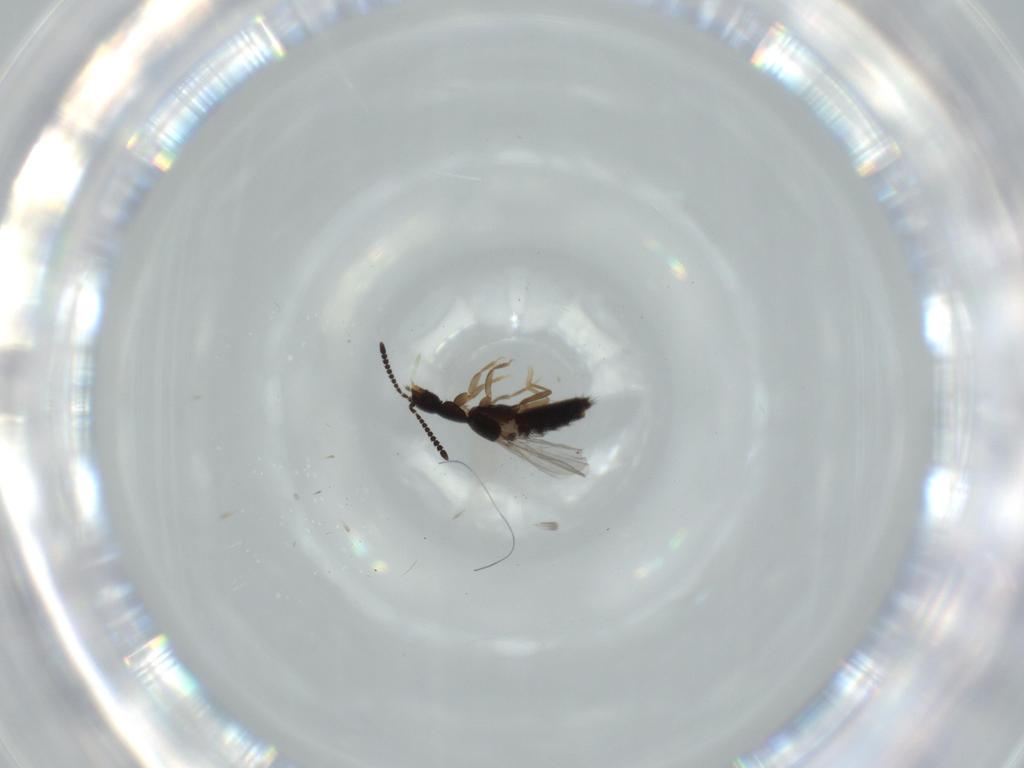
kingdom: Animalia
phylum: Arthropoda
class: Insecta
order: Coleoptera
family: Staphylinidae
